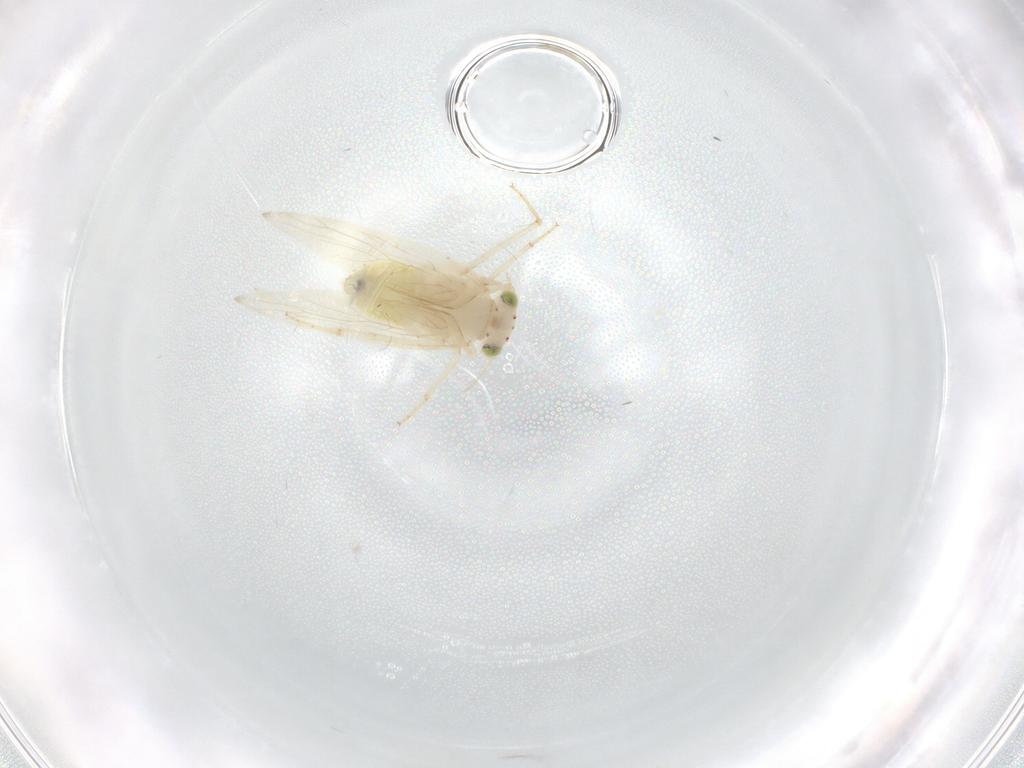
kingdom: Animalia
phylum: Arthropoda
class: Insecta
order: Psocodea
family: Lepidopsocidae
